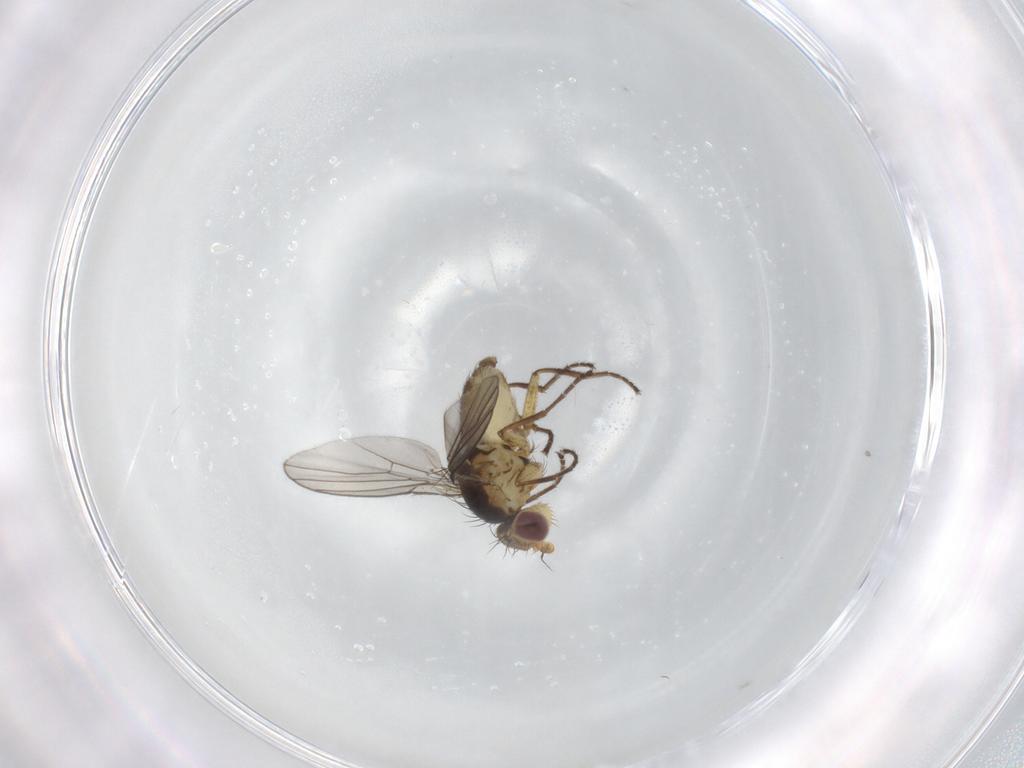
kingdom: Animalia
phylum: Arthropoda
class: Insecta
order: Diptera
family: Agromyzidae
